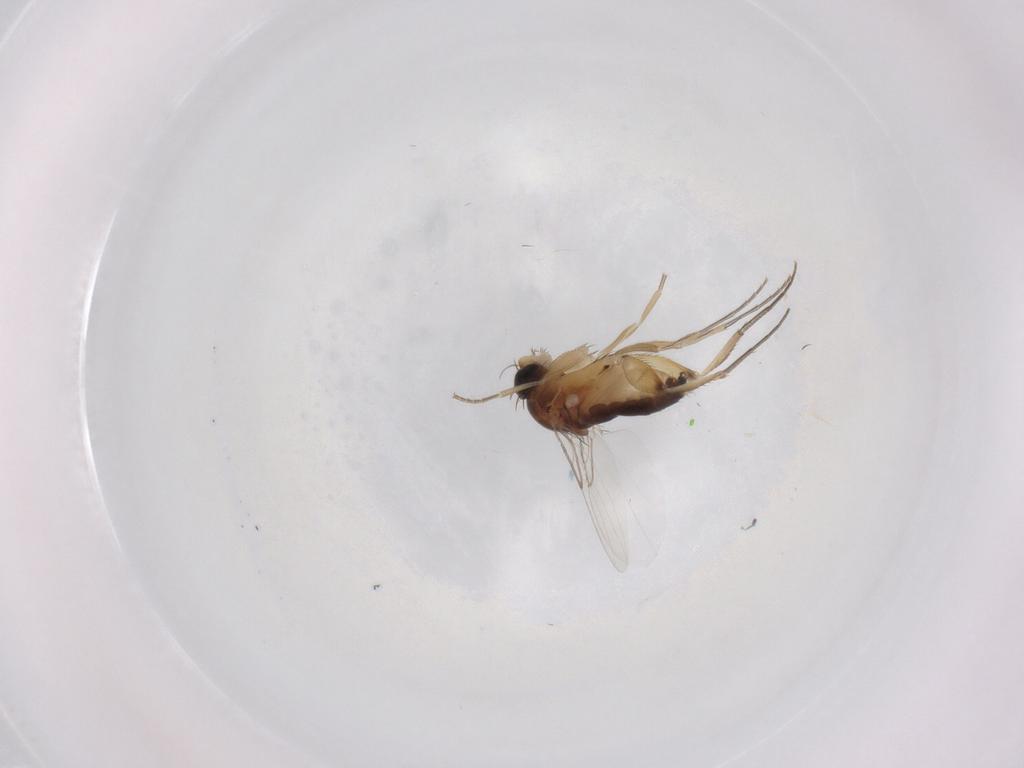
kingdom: Animalia
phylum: Arthropoda
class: Insecta
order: Diptera
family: Phoridae
